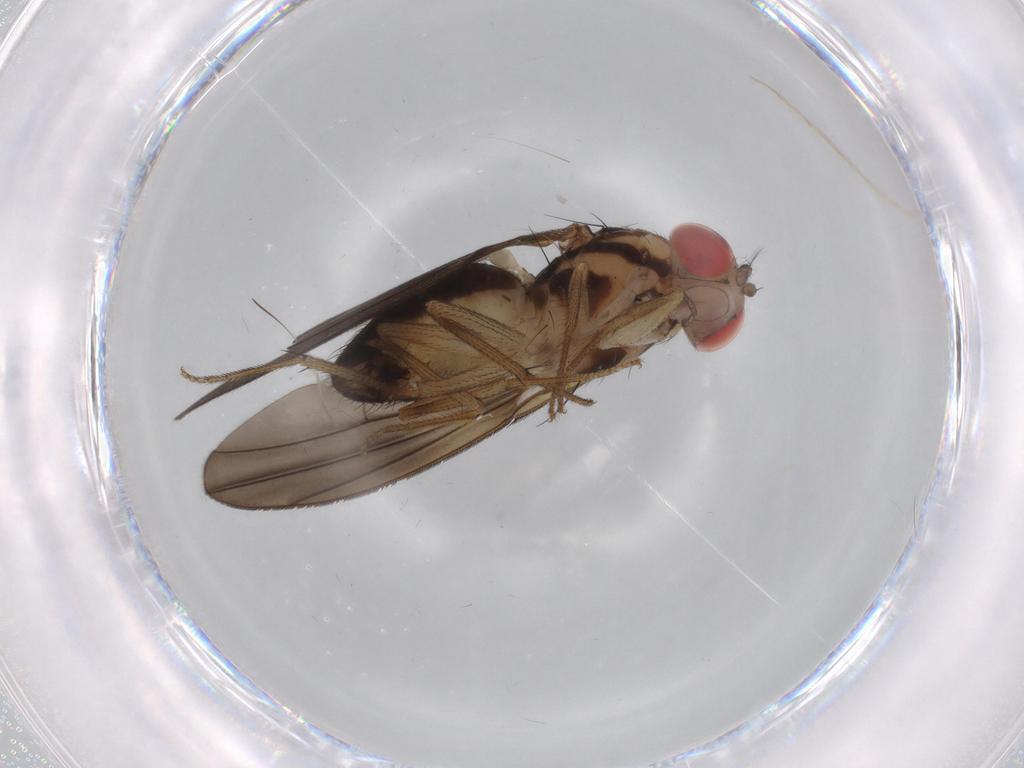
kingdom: Animalia
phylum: Arthropoda
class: Insecta
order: Diptera
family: Drosophilidae
